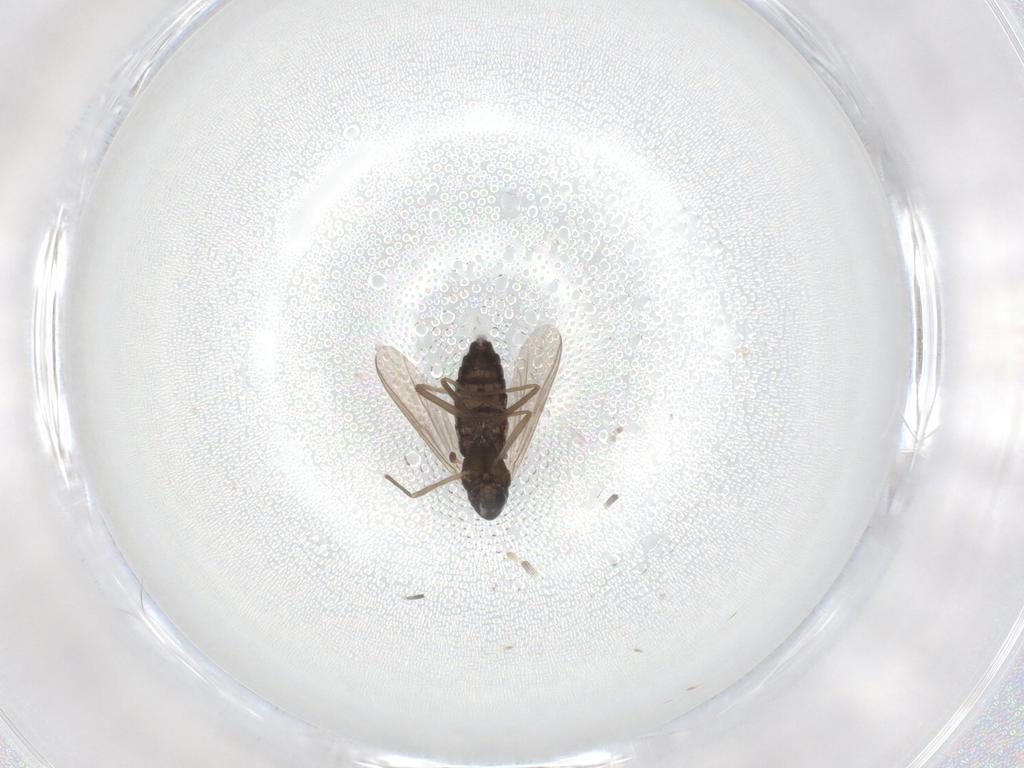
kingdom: Animalia
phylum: Arthropoda
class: Insecta
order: Diptera
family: Chironomidae
